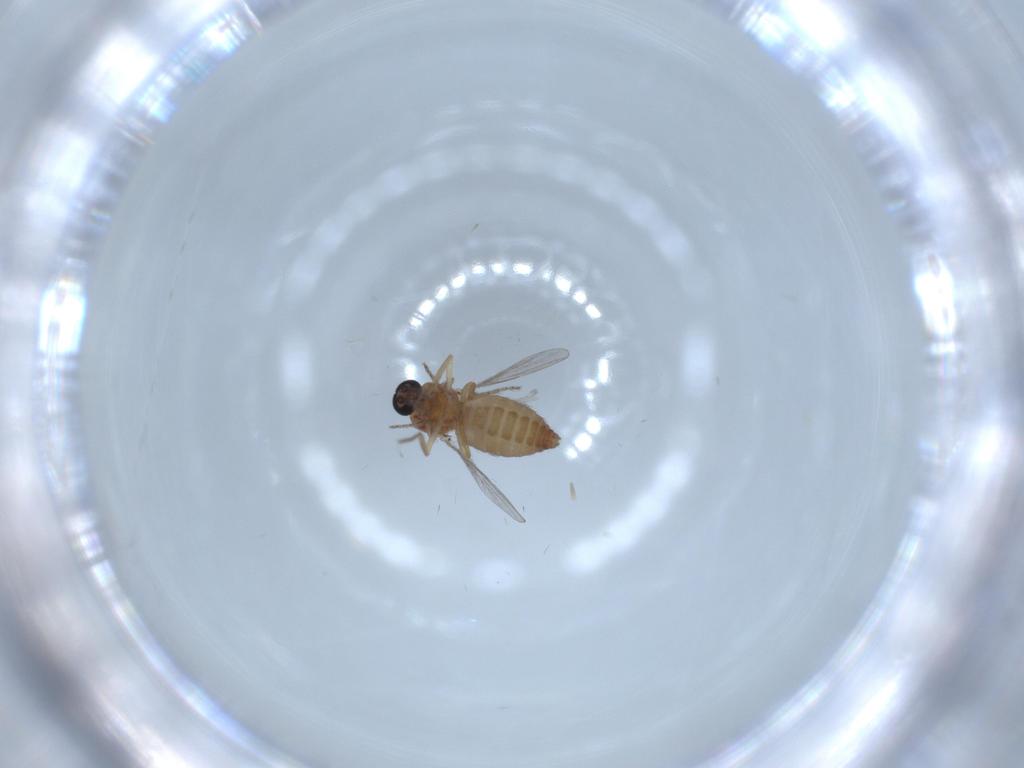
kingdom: Animalia
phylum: Arthropoda
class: Insecta
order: Diptera
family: Ceratopogonidae
